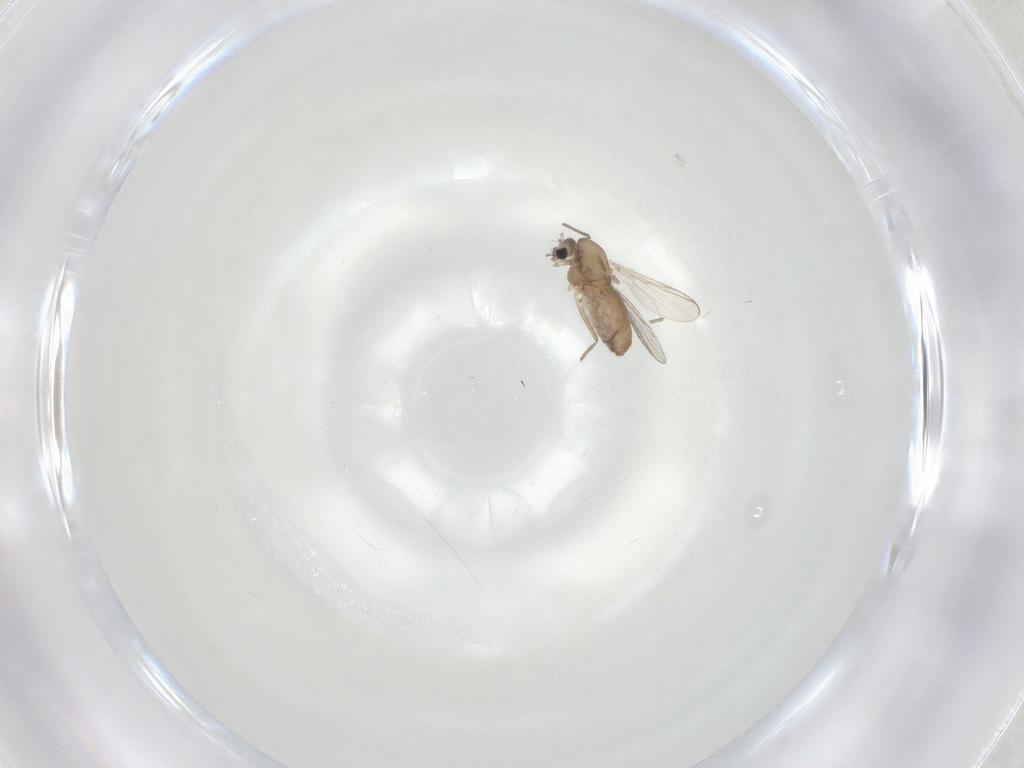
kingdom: Animalia
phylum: Arthropoda
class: Insecta
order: Diptera
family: Chironomidae
